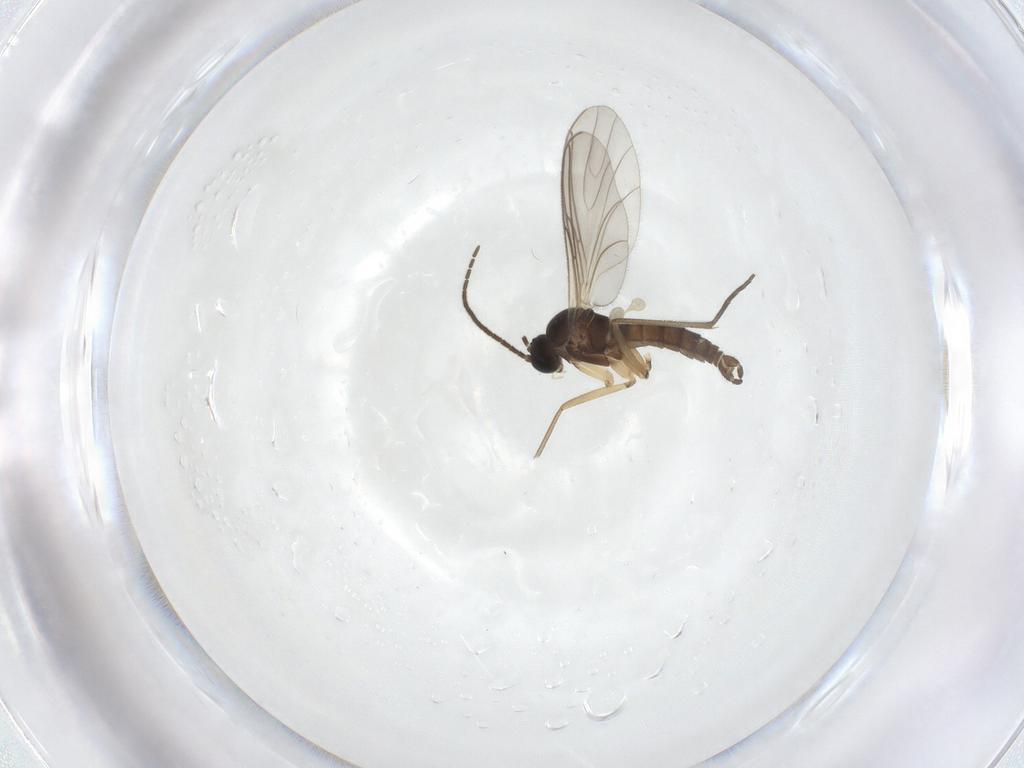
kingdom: Animalia
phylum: Arthropoda
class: Insecta
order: Diptera
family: Sciaridae
